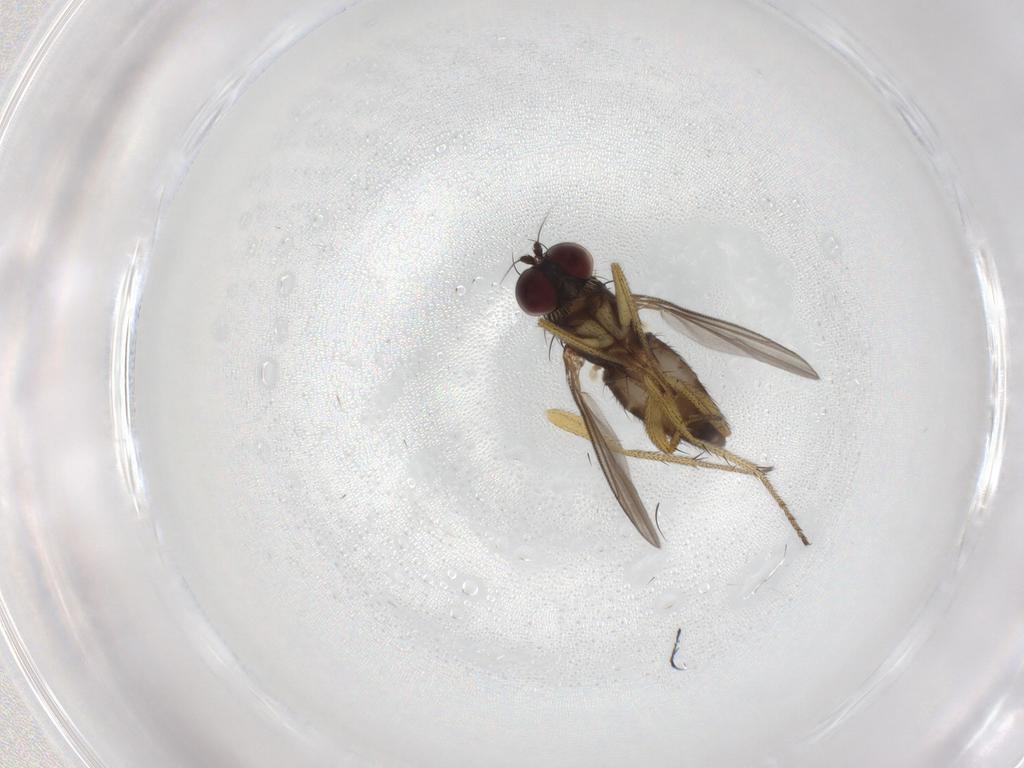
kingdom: Animalia
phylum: Arthropoda
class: Insecta
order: Diptera
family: Dolichopodidae
